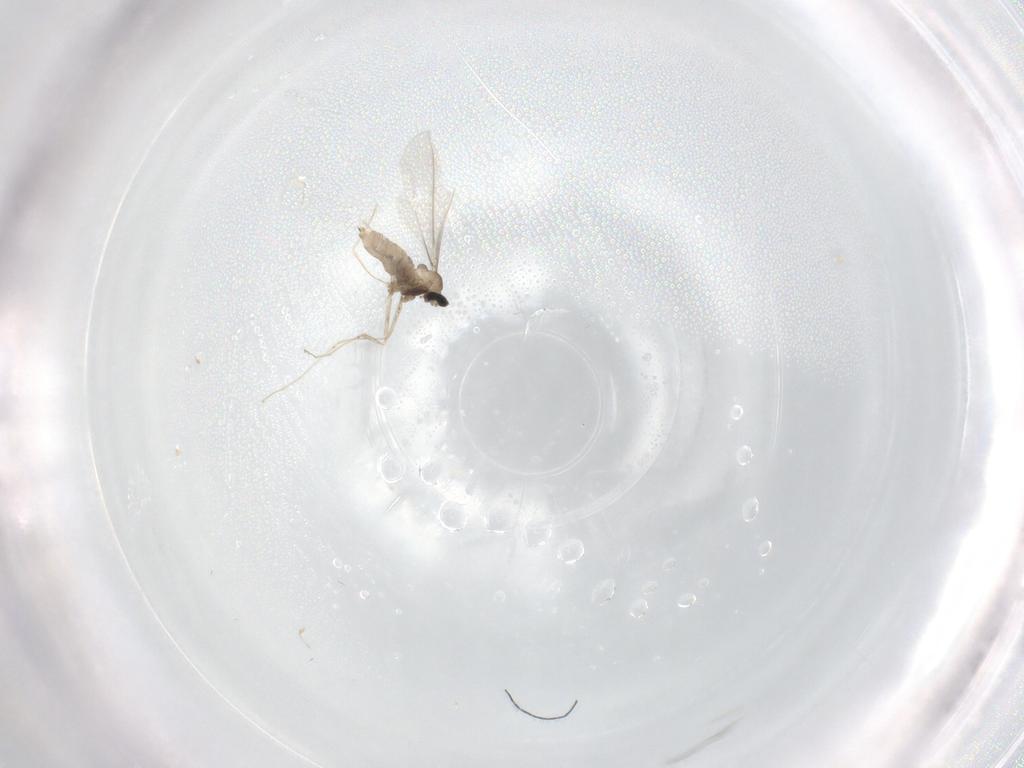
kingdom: Animalia
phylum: Arthropoda
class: Insecta
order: Diptera
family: Cecidomyiidae
